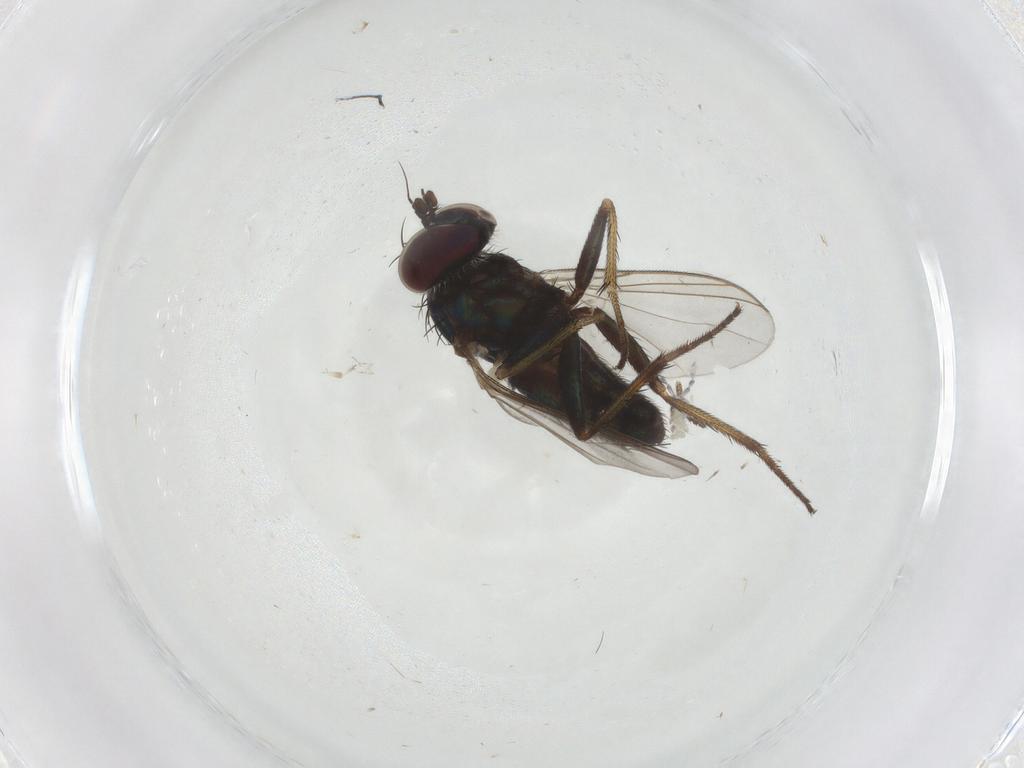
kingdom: Animalia
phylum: Arthropoda
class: Insecta
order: Diptera
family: Dolichopodidae
